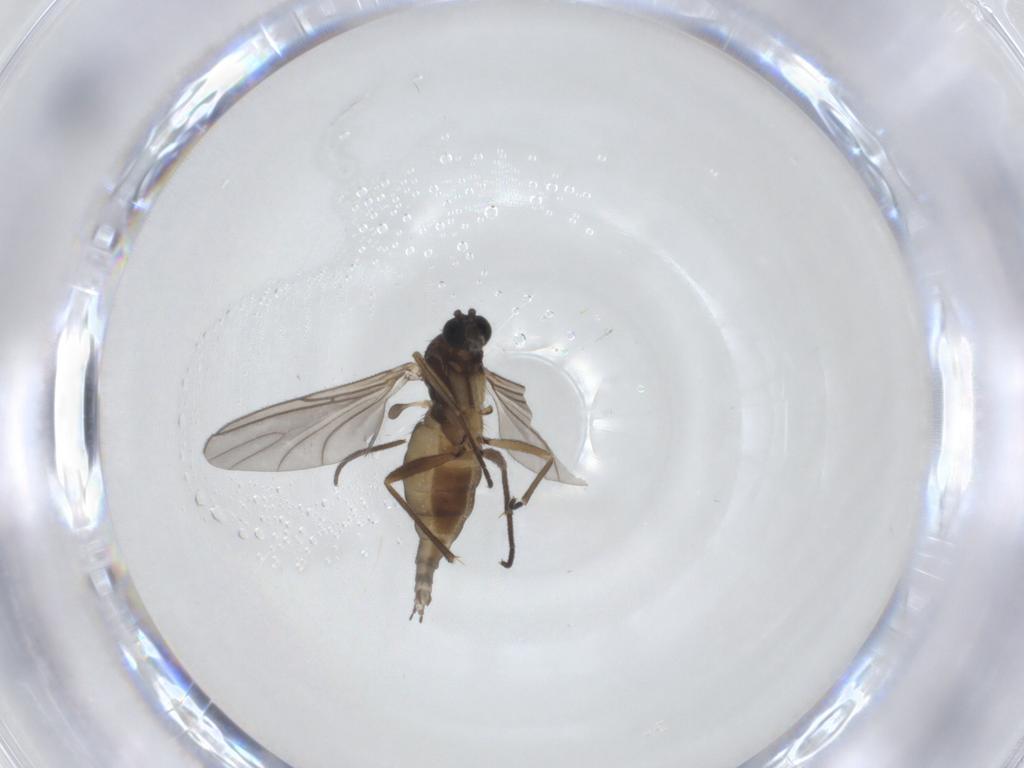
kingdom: Animalia
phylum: Arthropoda
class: Insecta
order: Diptera
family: Sciaridae
